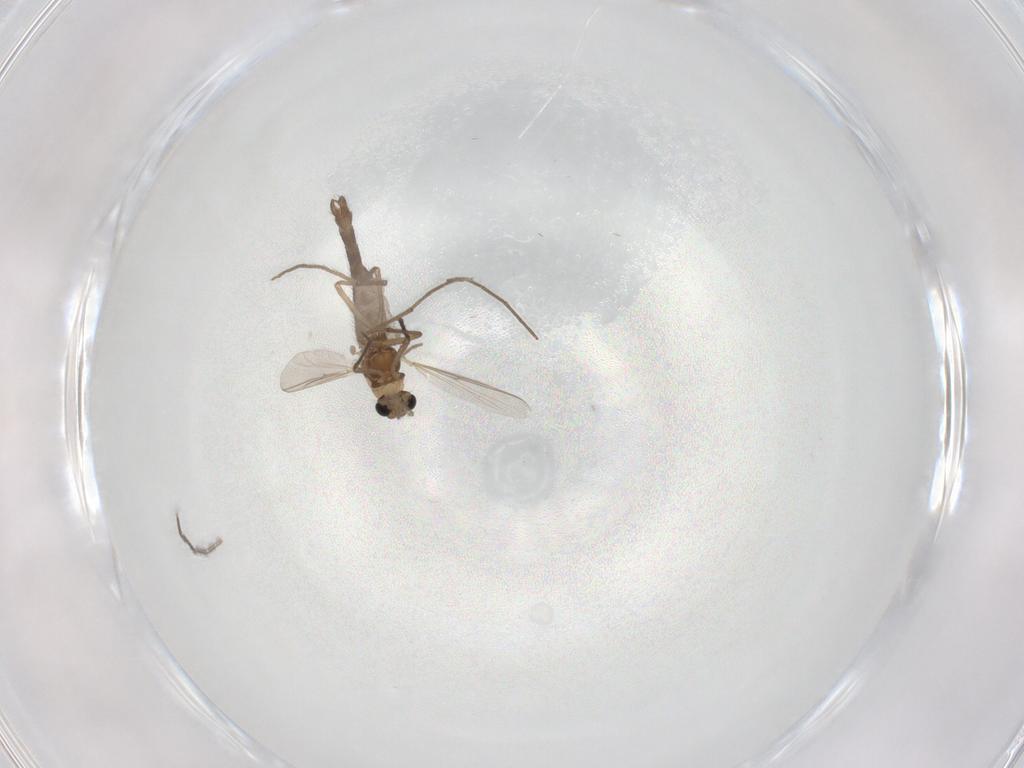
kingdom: Animalia
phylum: Arthropoda
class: Insecta
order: Diptera
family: Chironomidae
